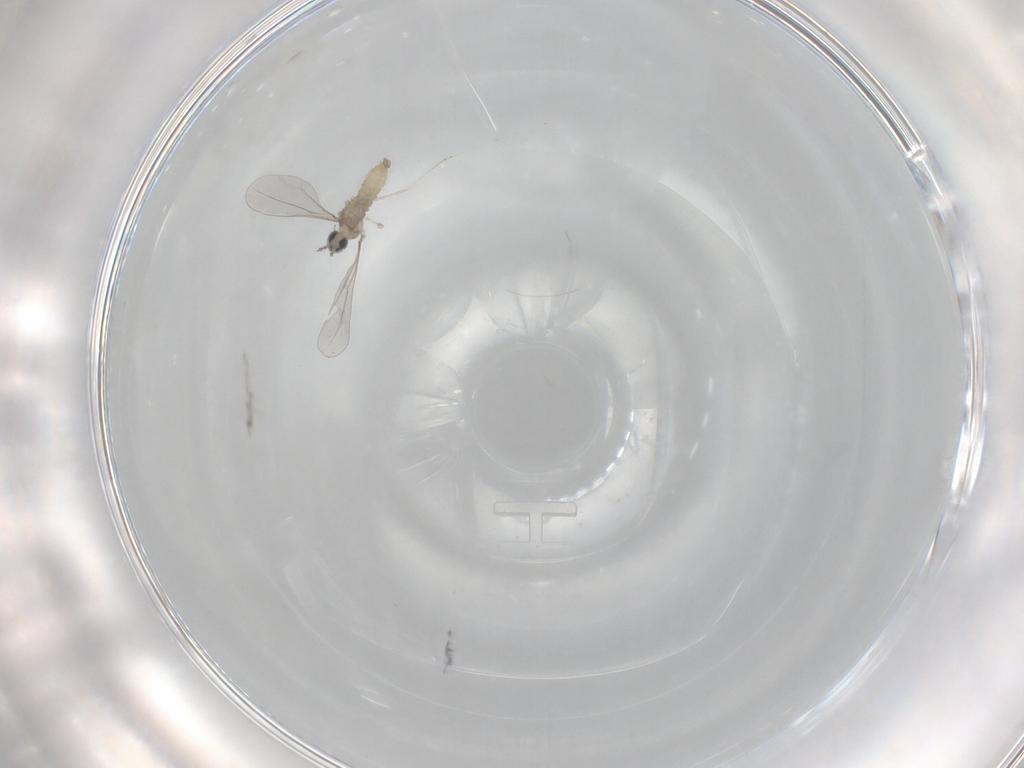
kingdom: Animalia
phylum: Arthropoda
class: Insecta
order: Diptera
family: Cecidomyiidae
